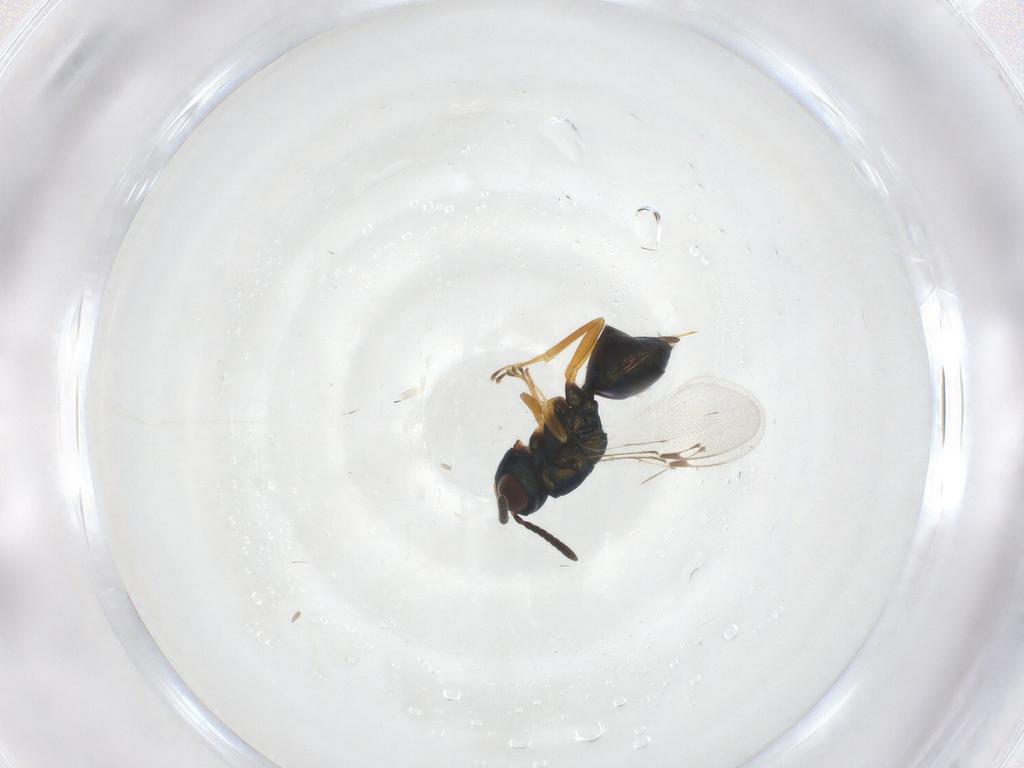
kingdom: Animalia
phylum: Arthropoda
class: Insecta
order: Hymenoptera
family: Pteromalidae
